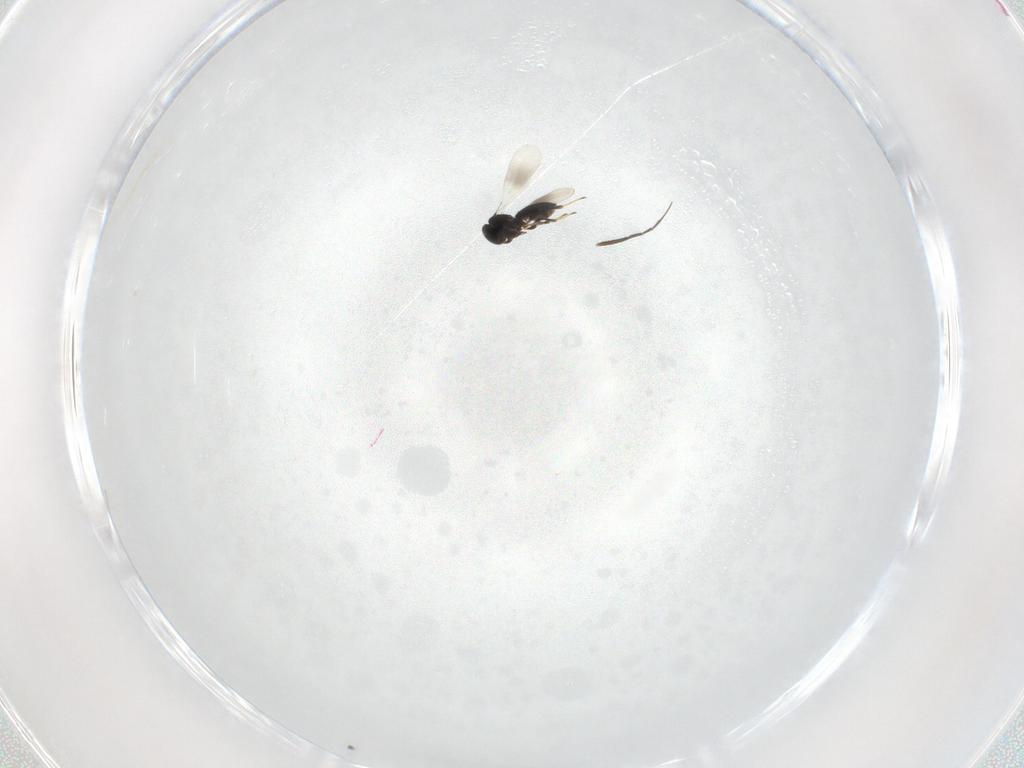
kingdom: Animalia
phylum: Arthropoda
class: Insecta
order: Hymenoptera
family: Platygastridae
